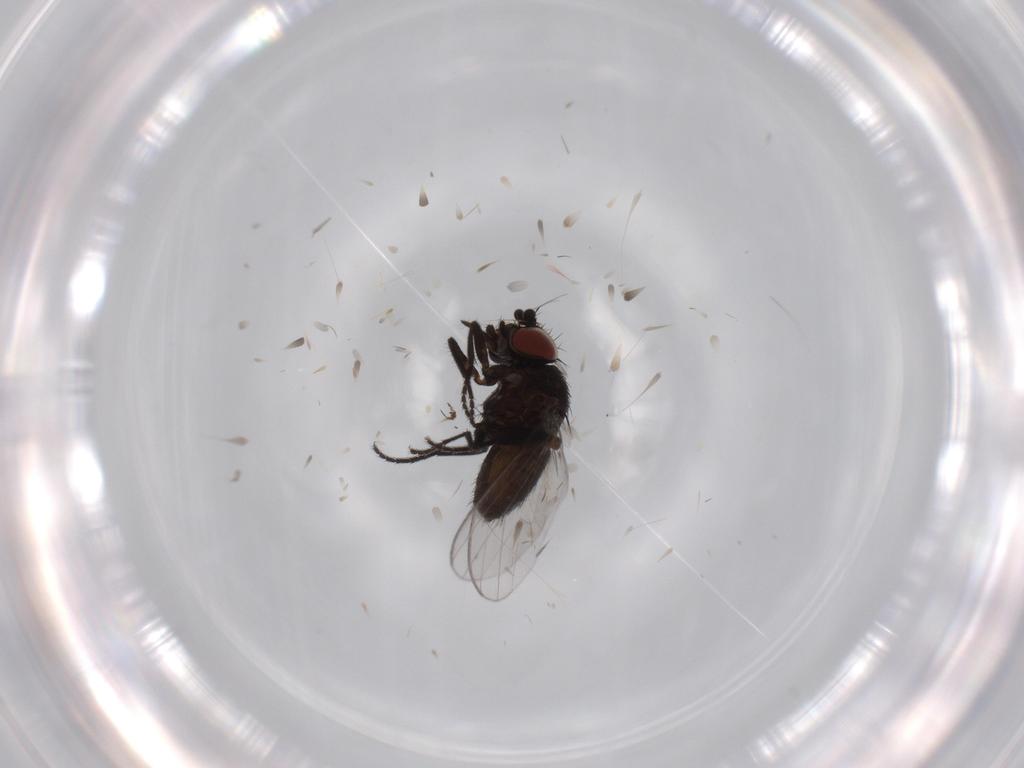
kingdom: Animalia
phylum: Arthropoda
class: Insecta
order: Diptera
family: Milichiidae
